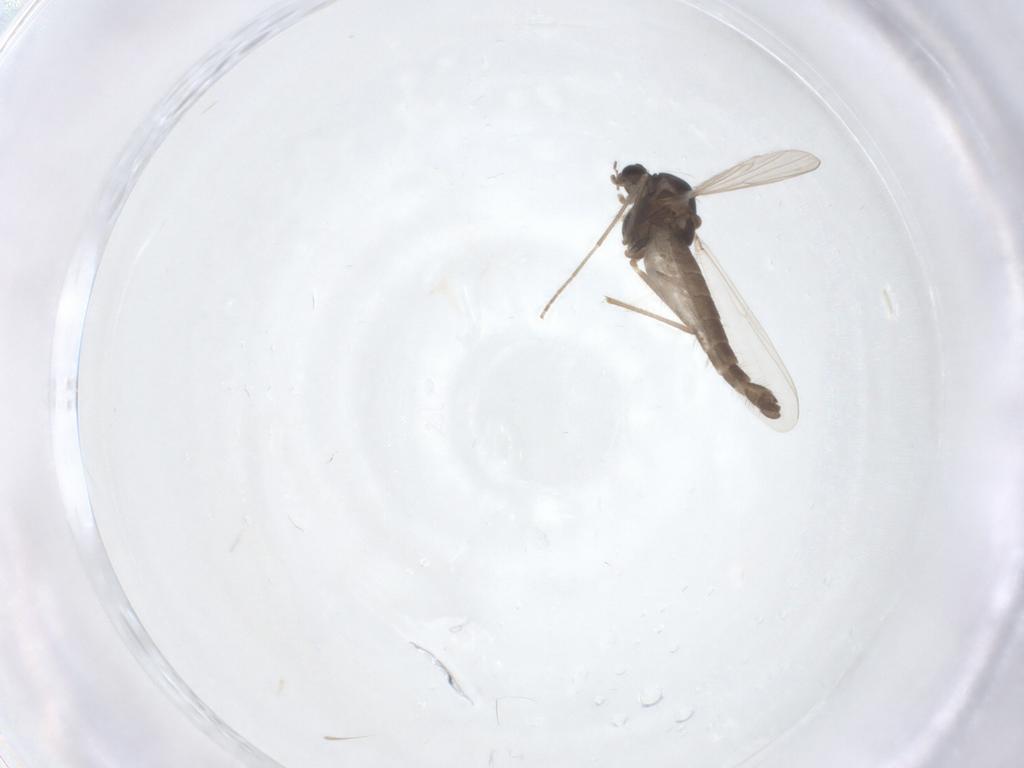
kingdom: Animalia
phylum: Arthropoda
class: Insecta
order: Diptera
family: Chironomidae
